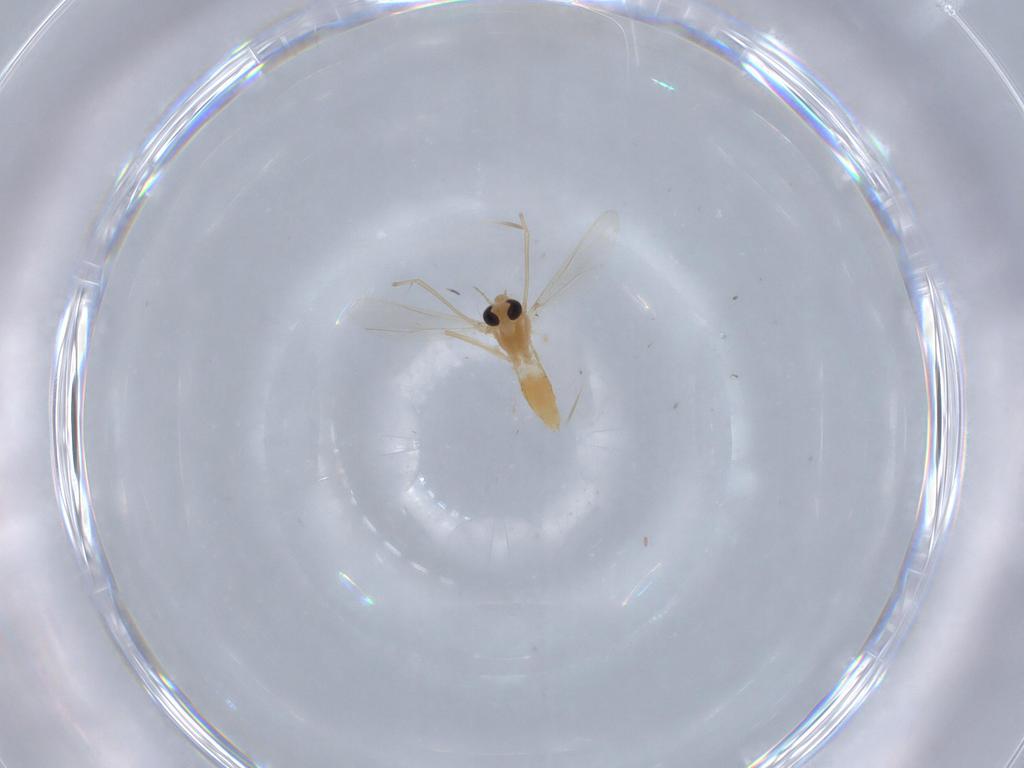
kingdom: Animalia
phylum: Arthropoda
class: Insecta
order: Diptera
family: Chironomidae
